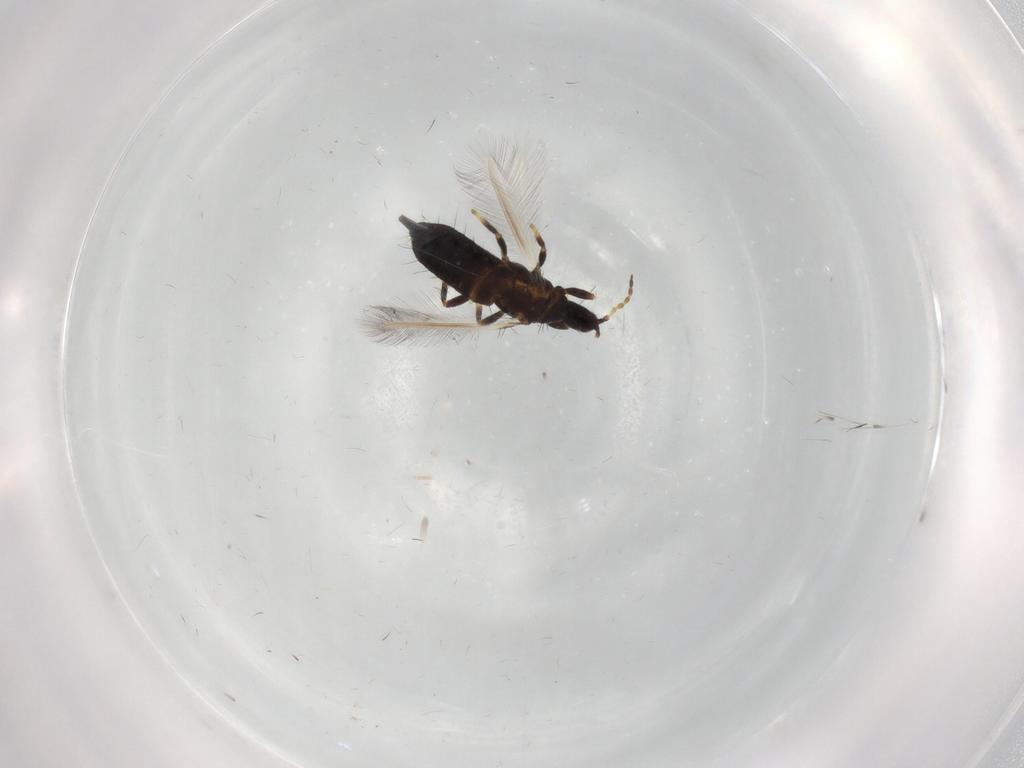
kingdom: Animalia
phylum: Arthropoda
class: Insecta
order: Thysanoptera
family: Phlaeothripidae
